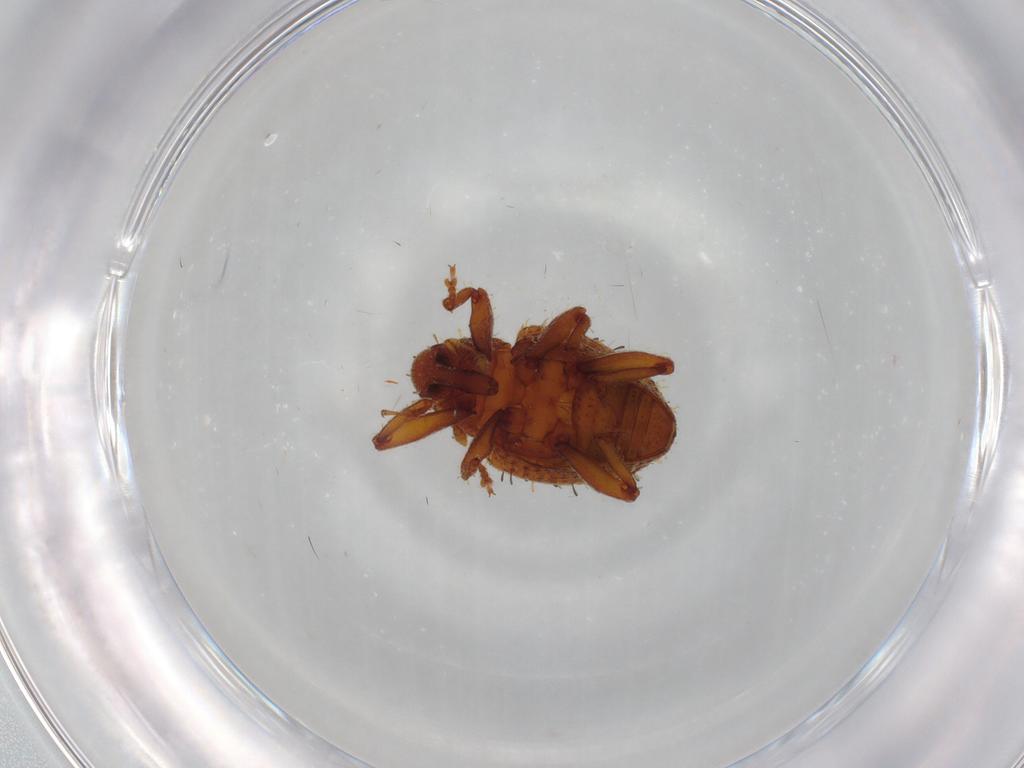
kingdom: Animalia
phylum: Arthropoda
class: Insecta
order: Coleoptera
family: Curculionidae
